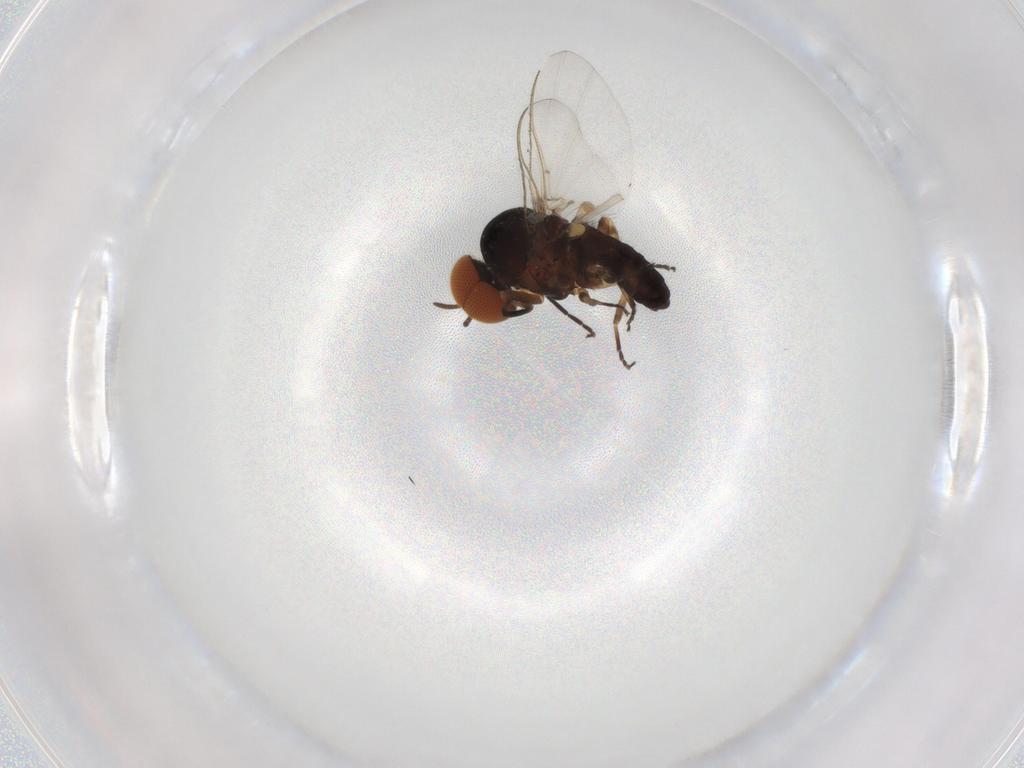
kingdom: Animalia
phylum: Arthropoda
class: Insecta
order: Diptera
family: Simuliidae
